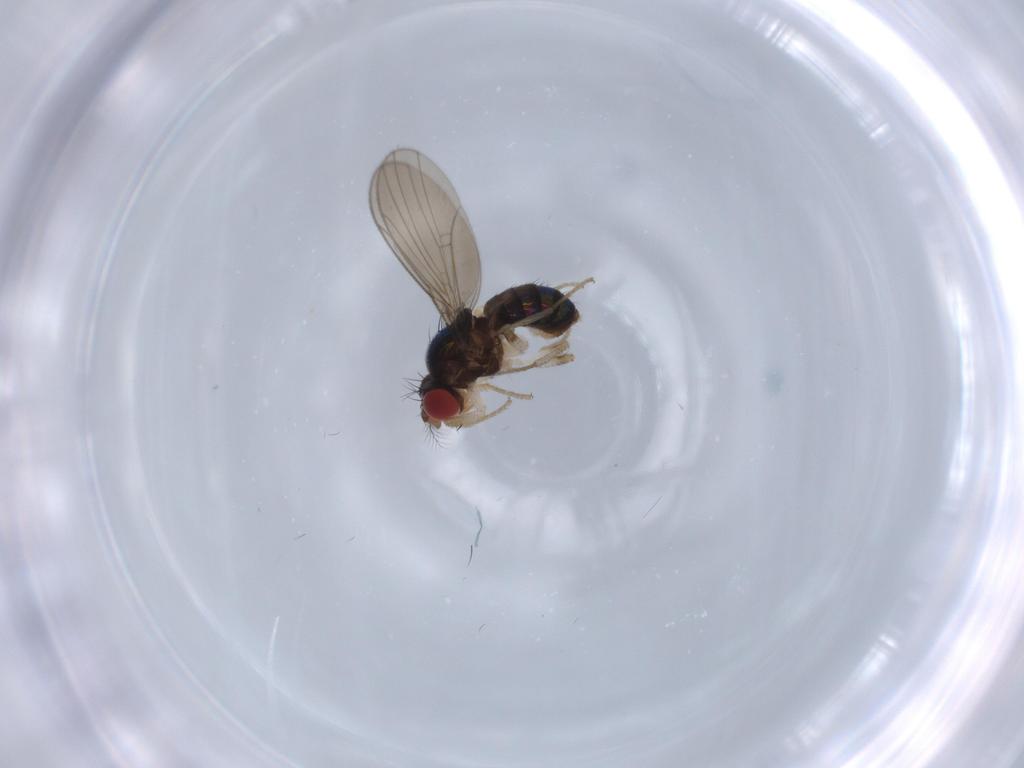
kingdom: Animalia
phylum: Arthropoda
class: Insecta
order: Diptera
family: Drosophilidae
